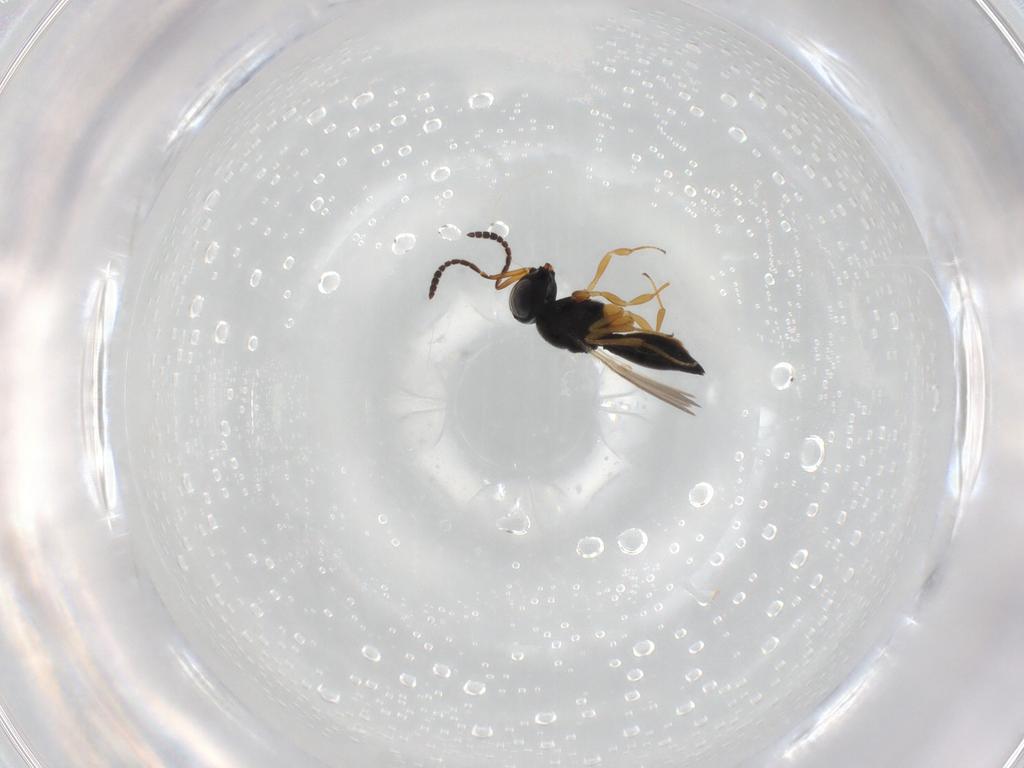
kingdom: Animalia
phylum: Arthropoda
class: Insecta
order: Hymenoptera
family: Scelionidae
